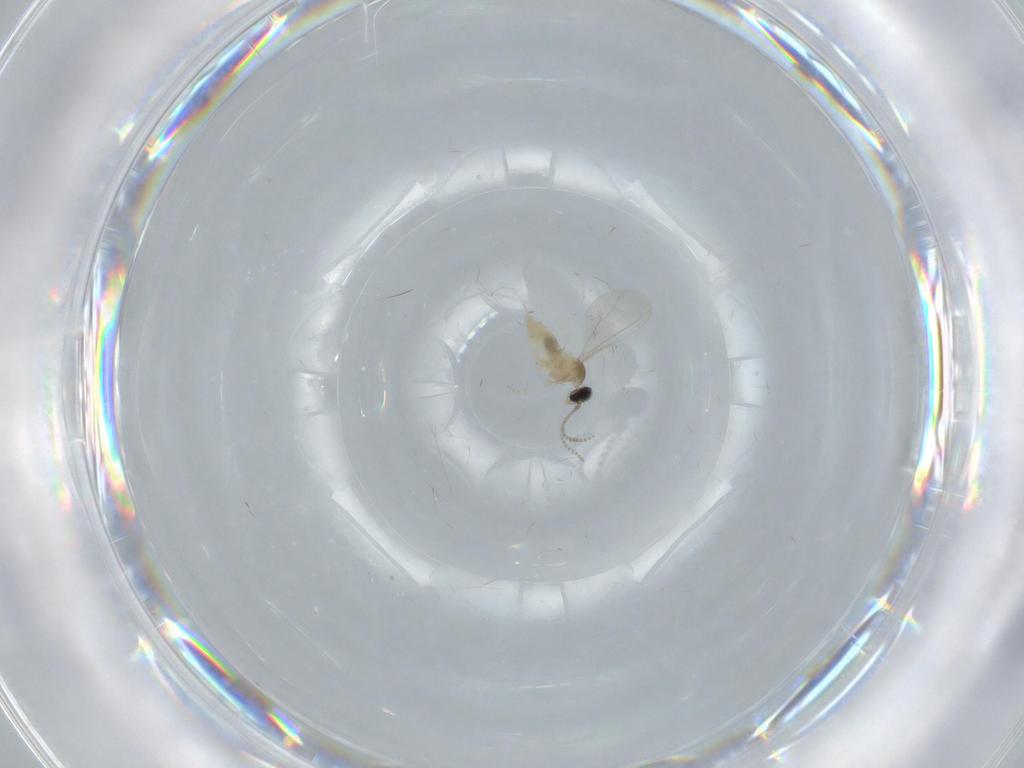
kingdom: Animalia
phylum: Arthropoda
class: Insecta
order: Diptera
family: Cecidomyiidae
